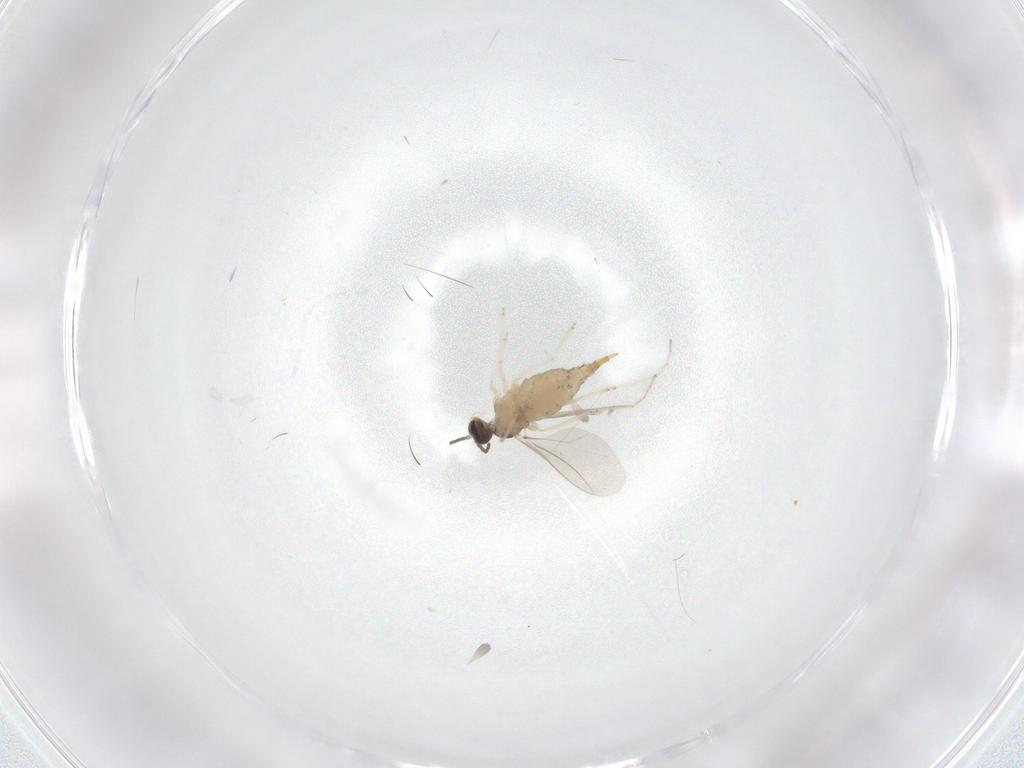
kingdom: Animalia
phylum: Arthropoda
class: Insecta
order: Diptera
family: Cecidomyiidae
